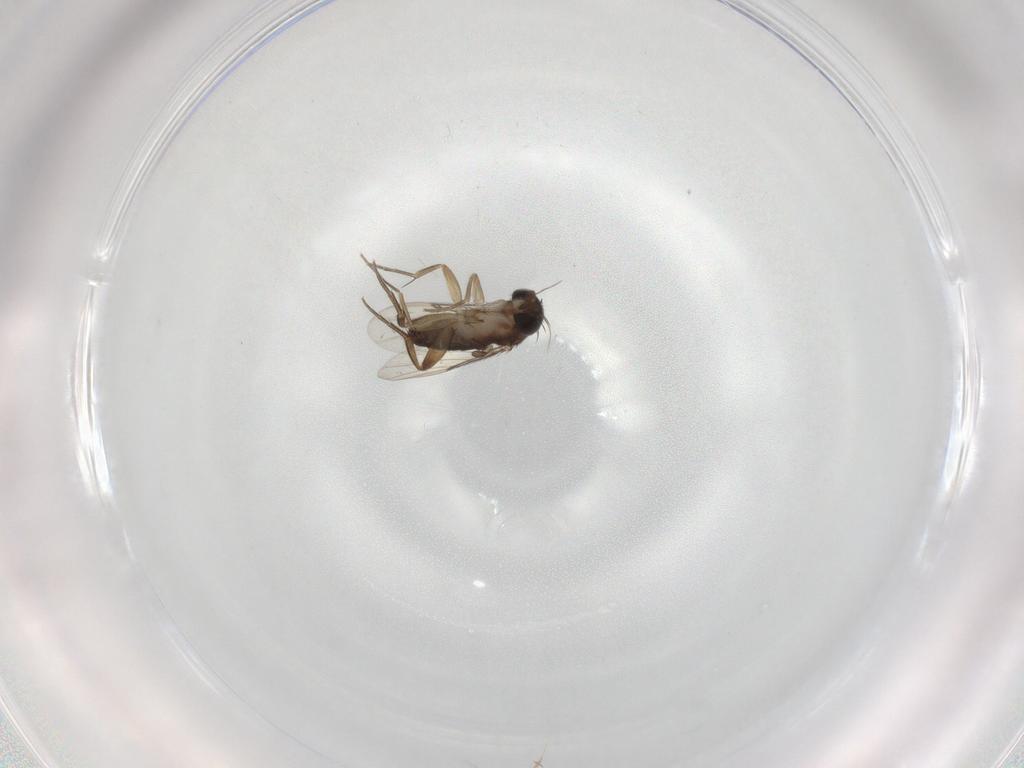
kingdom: Animalia
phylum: Arthropoda
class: Insecta
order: Diptera
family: Phoridae
